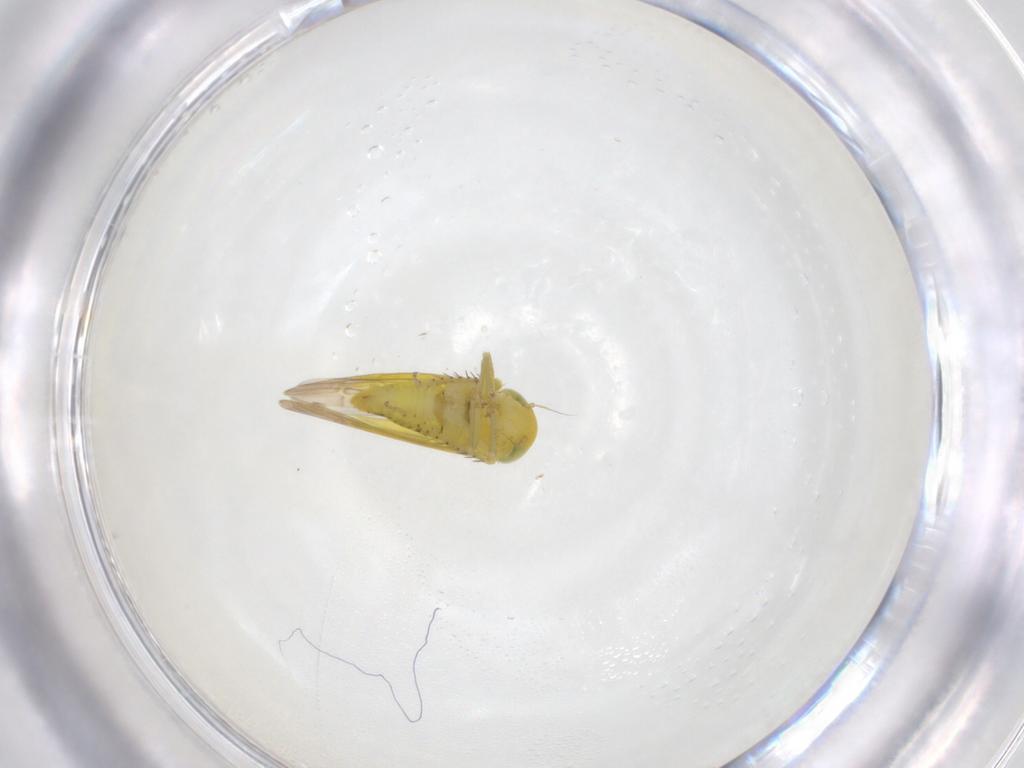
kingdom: Animalia
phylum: Arthropoda
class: Insecta
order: Hemiptera
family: Cicadellidae
